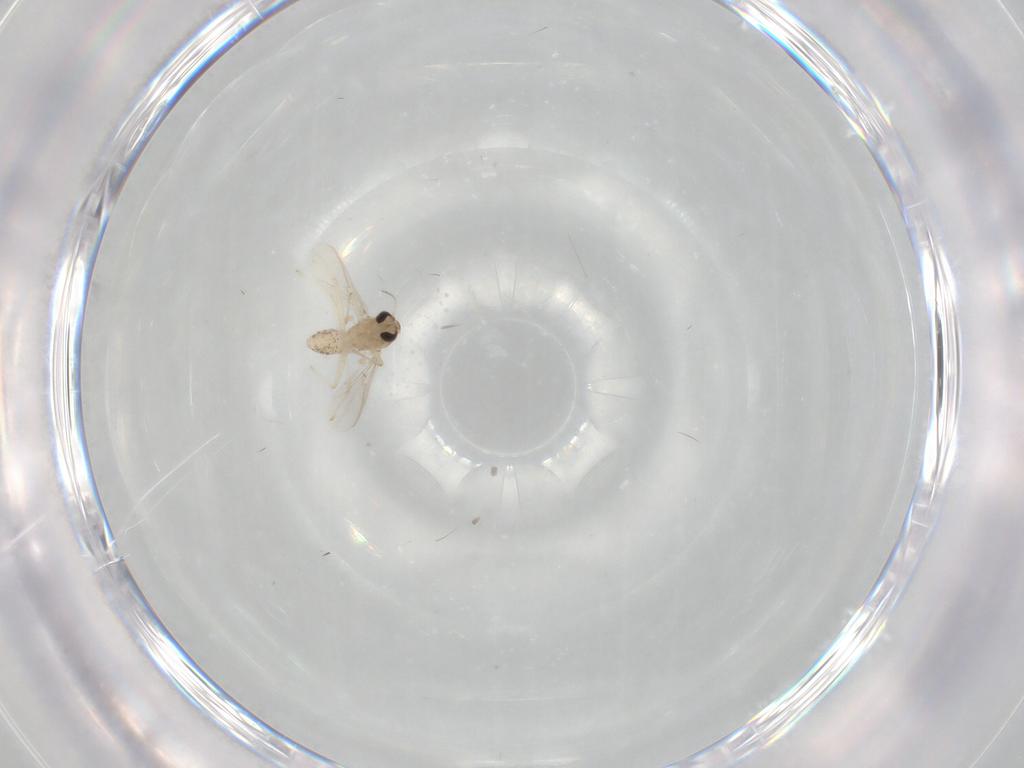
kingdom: Animalia
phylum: Arthropoda
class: Insecta
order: Diptera
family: Chironomidae
